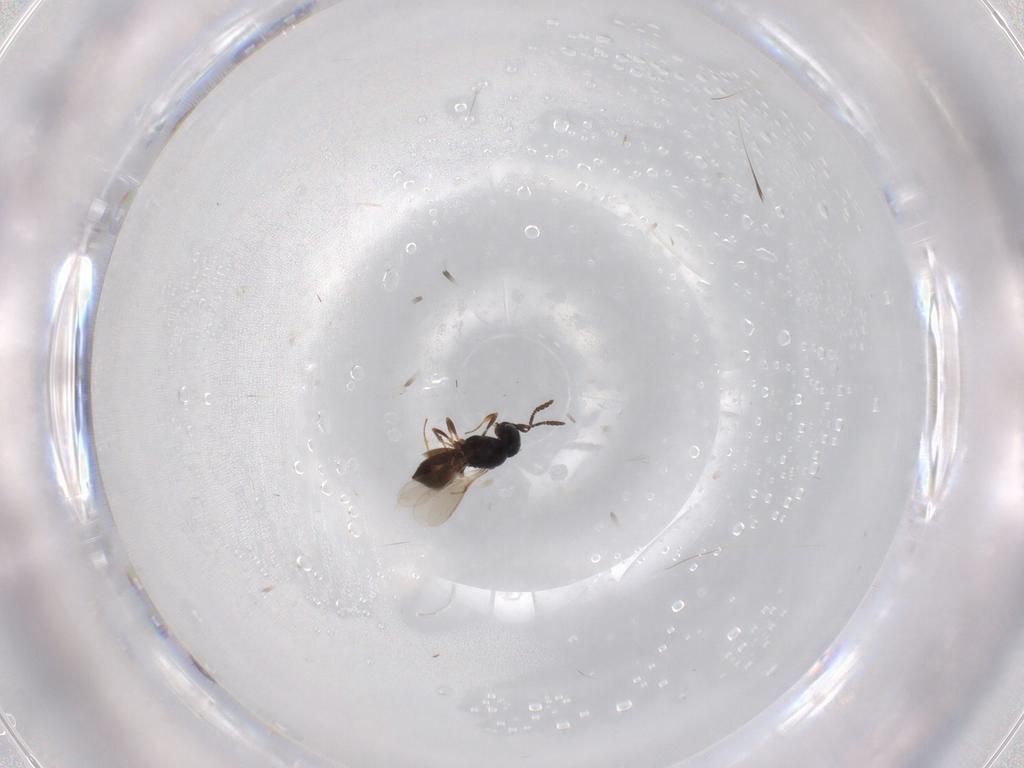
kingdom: Animalia
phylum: Arthropoda
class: Insecta
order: Hymenoptera
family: Scelionidae
